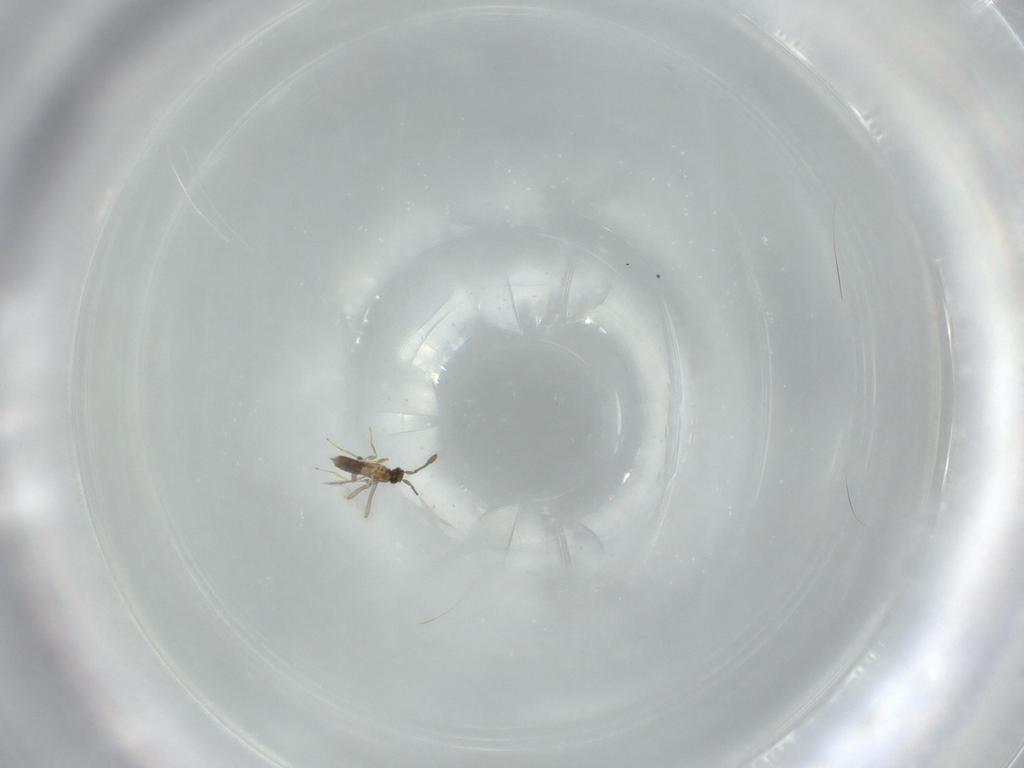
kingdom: Animalia
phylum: Arthropoda
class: Insecta
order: Hymenoptera
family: Mymaridae
